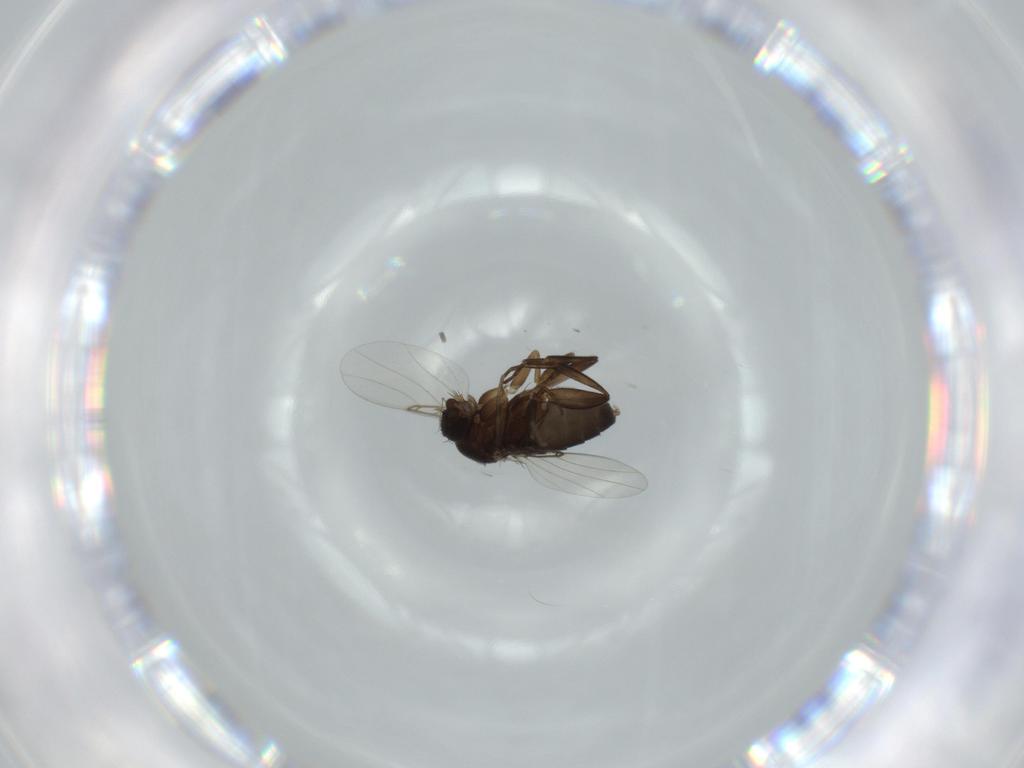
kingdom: Animalia
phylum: Arthropoda
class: Insecta
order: Diptera
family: Phoridae
